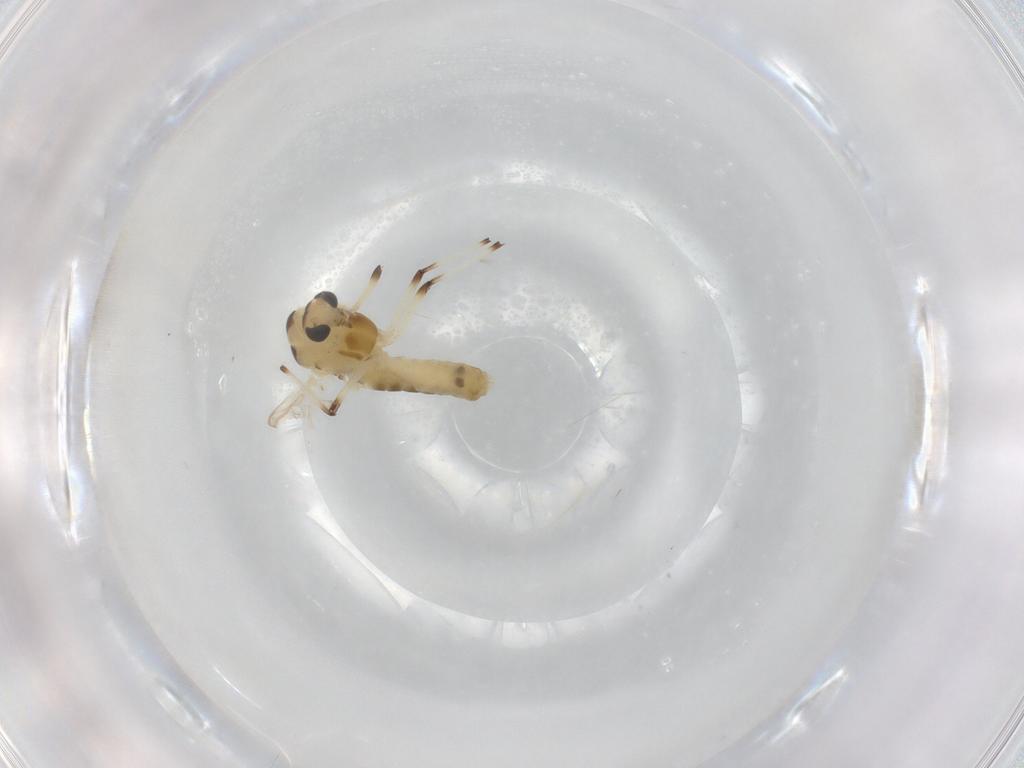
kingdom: Animalia
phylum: Arthropoda
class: Insecta
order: Diptera
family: Chironomidae
